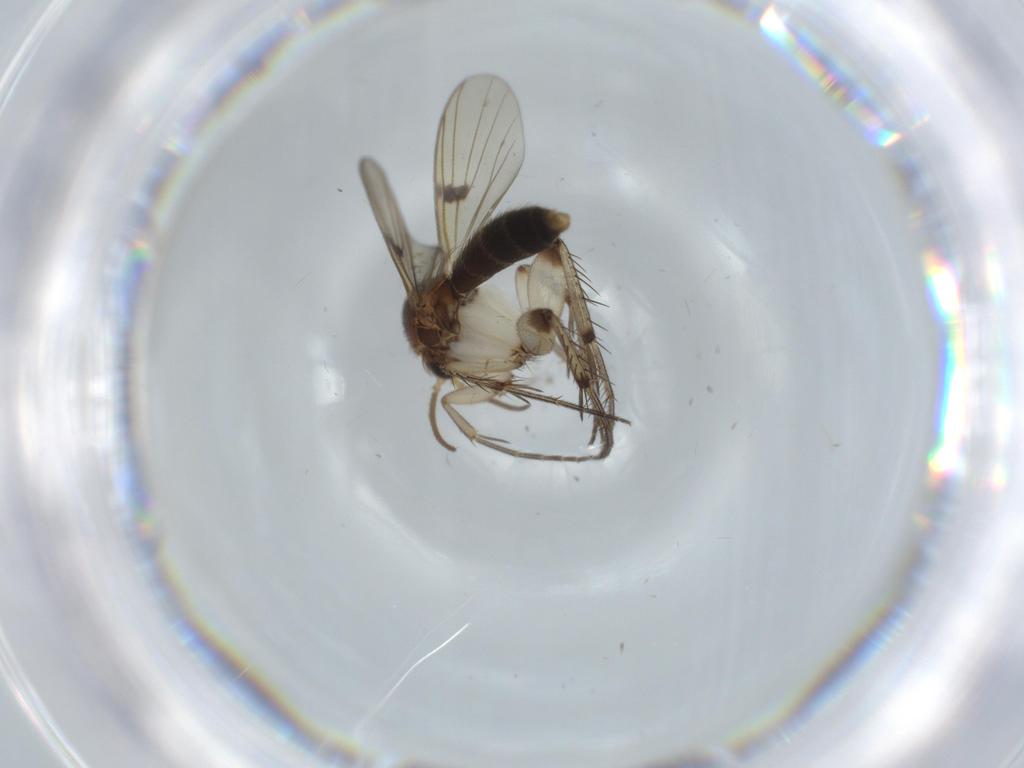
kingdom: Animalia
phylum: Arthropoda
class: Insecta
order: Diptera
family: Mycetophilidae
